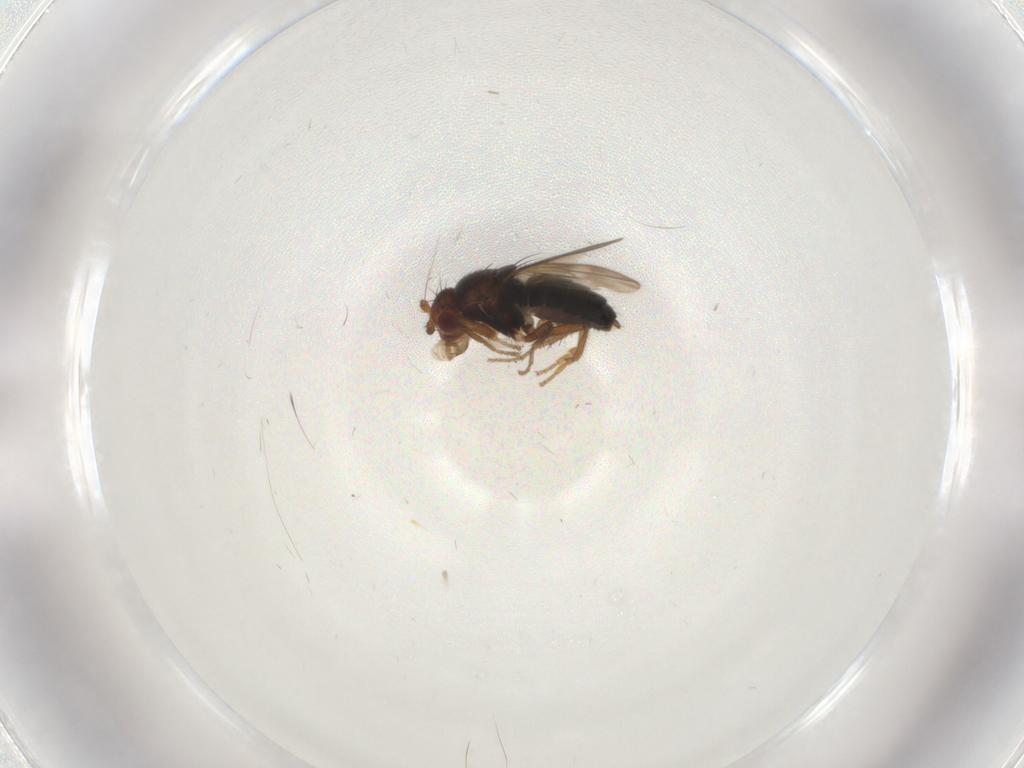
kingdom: Animalia
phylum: Arthropoda
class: Insecta
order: Diptera
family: Sphaeroceridae
